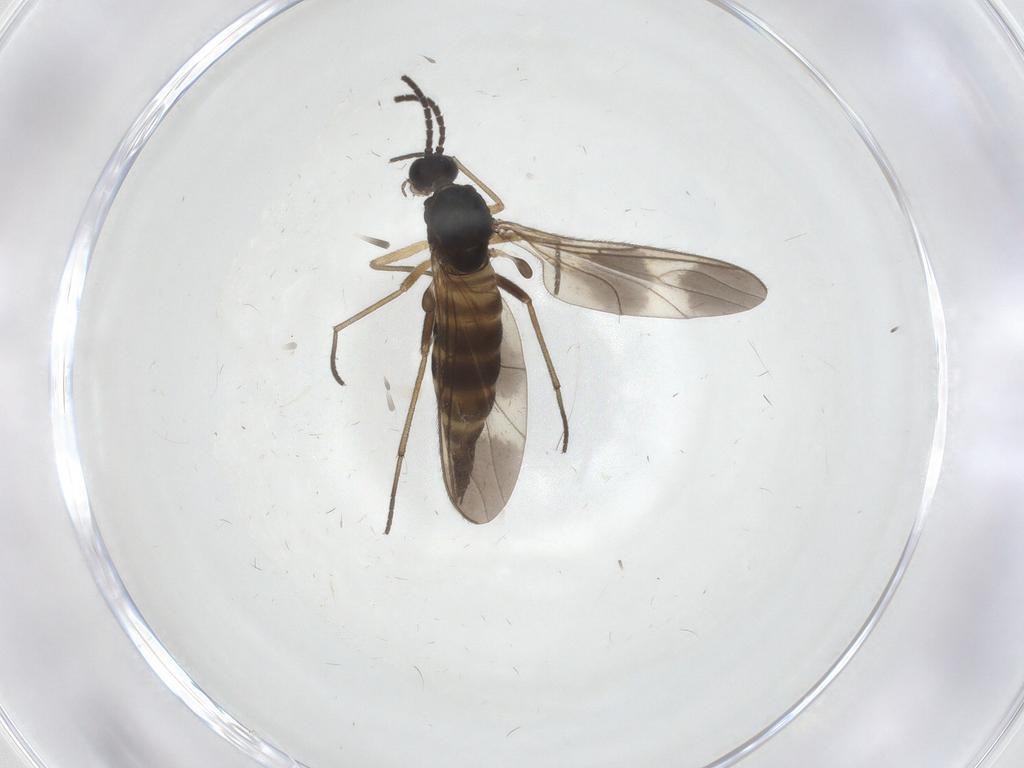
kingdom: Animalia
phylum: Arthropoda
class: Insecta
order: Diptera
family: Sciaridae
